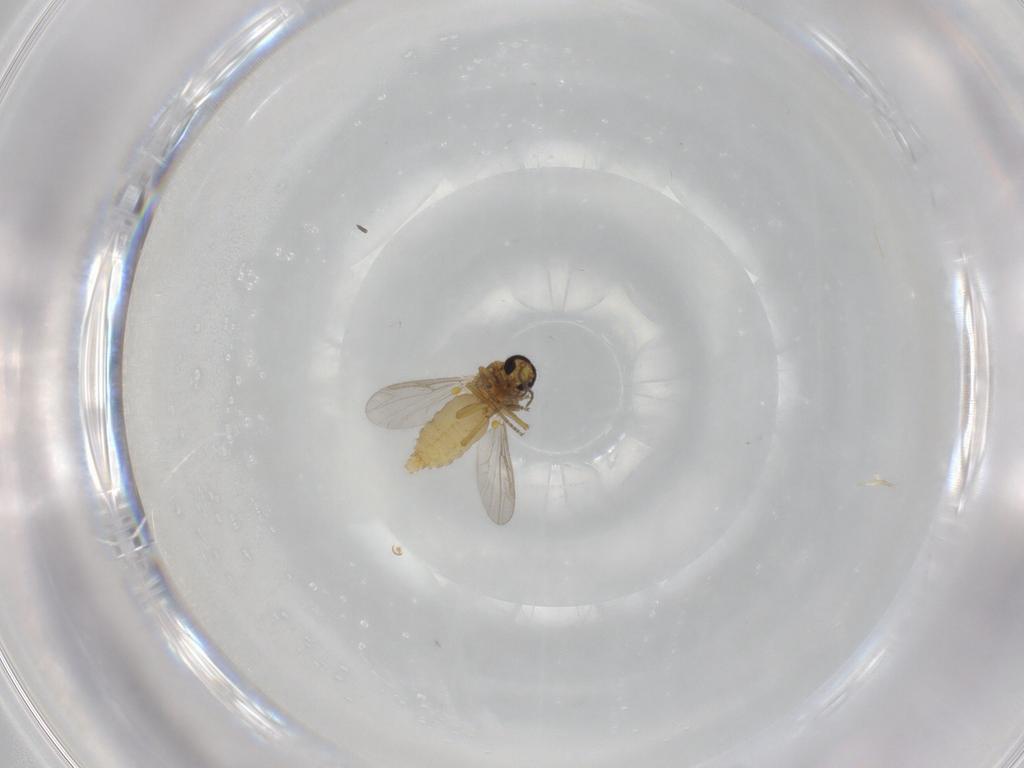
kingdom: Animalia
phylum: Arthropoda
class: Insecta
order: Diptera
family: Ceratopogonidae
